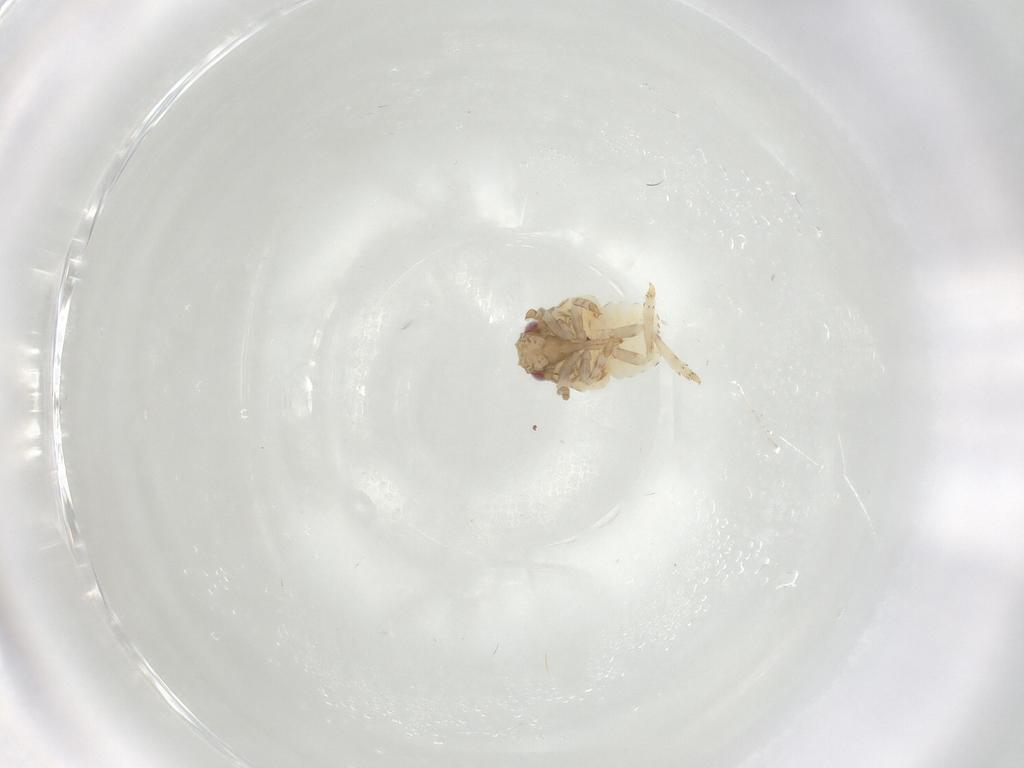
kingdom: Animalia
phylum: Arthropoda
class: Insecta
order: Hemiptera
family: Acanaloniidae
